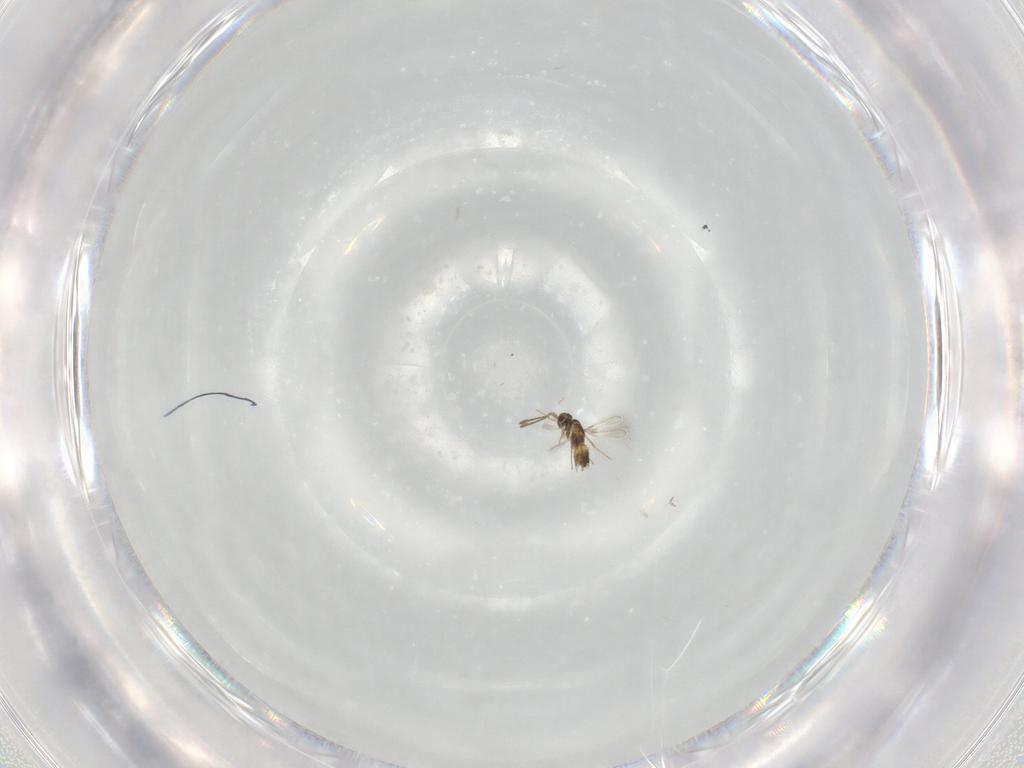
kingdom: Animalia
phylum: Arthropoda
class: Insecta
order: Hymenoptera
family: Mymaridae
